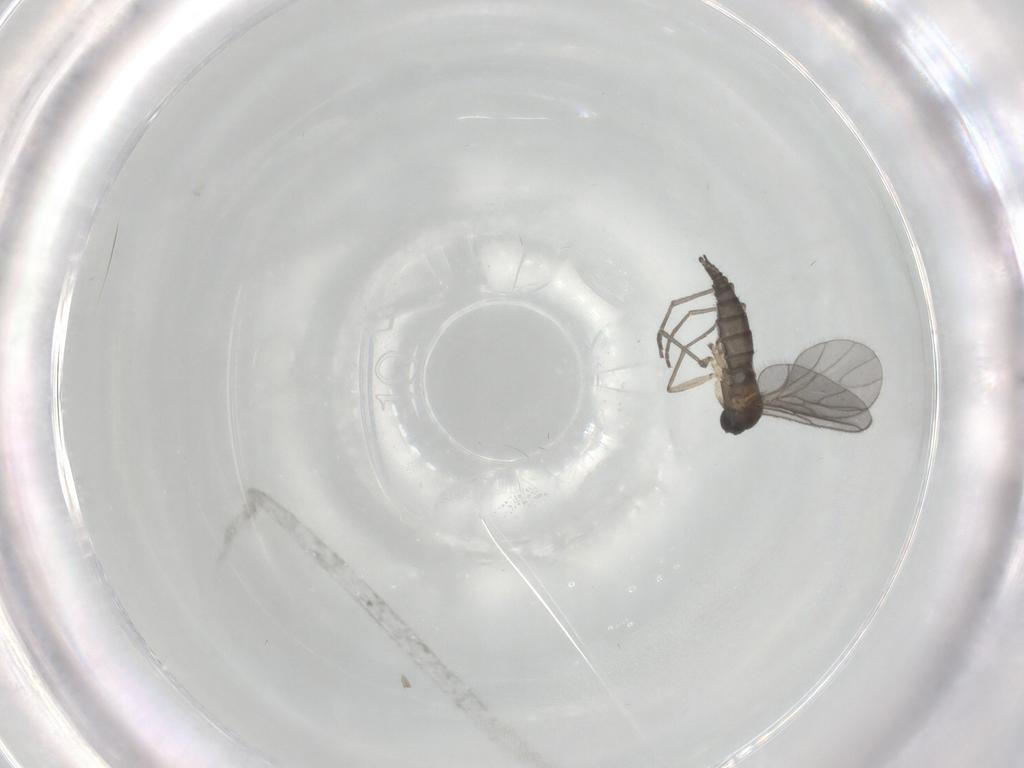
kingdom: Animalia
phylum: Arthropoda
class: Insecta
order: Diptera
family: Sciaridae
